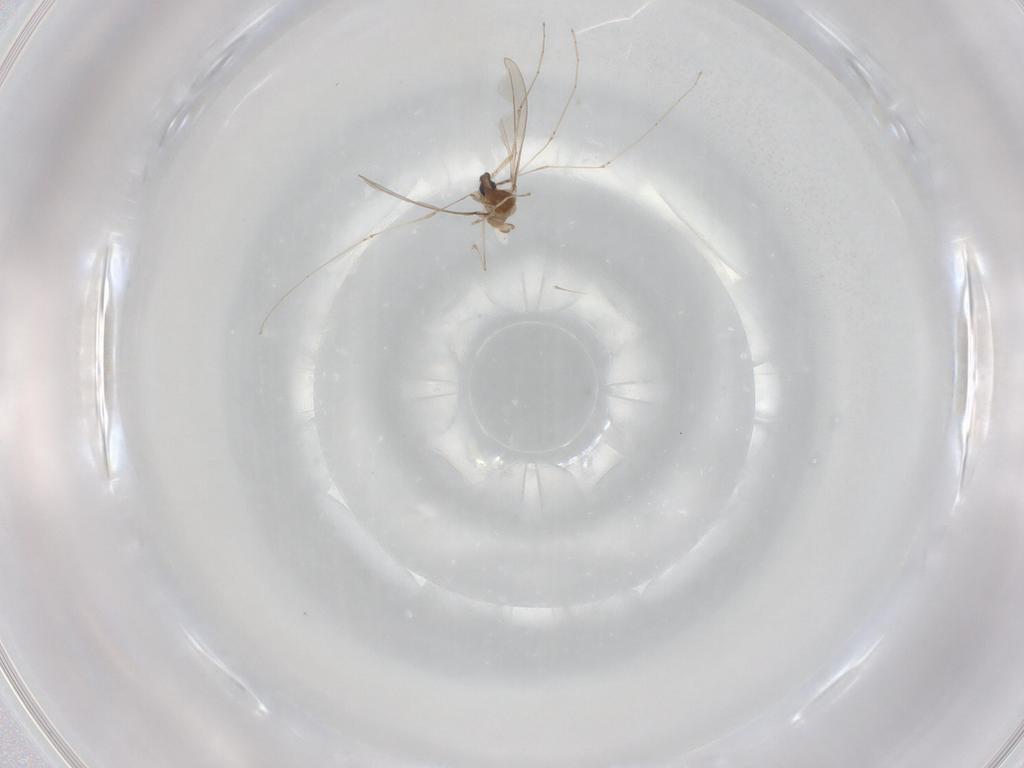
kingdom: Animalia
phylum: Arthropoda
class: Insecta
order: Diptera
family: Cecidomyiidae
